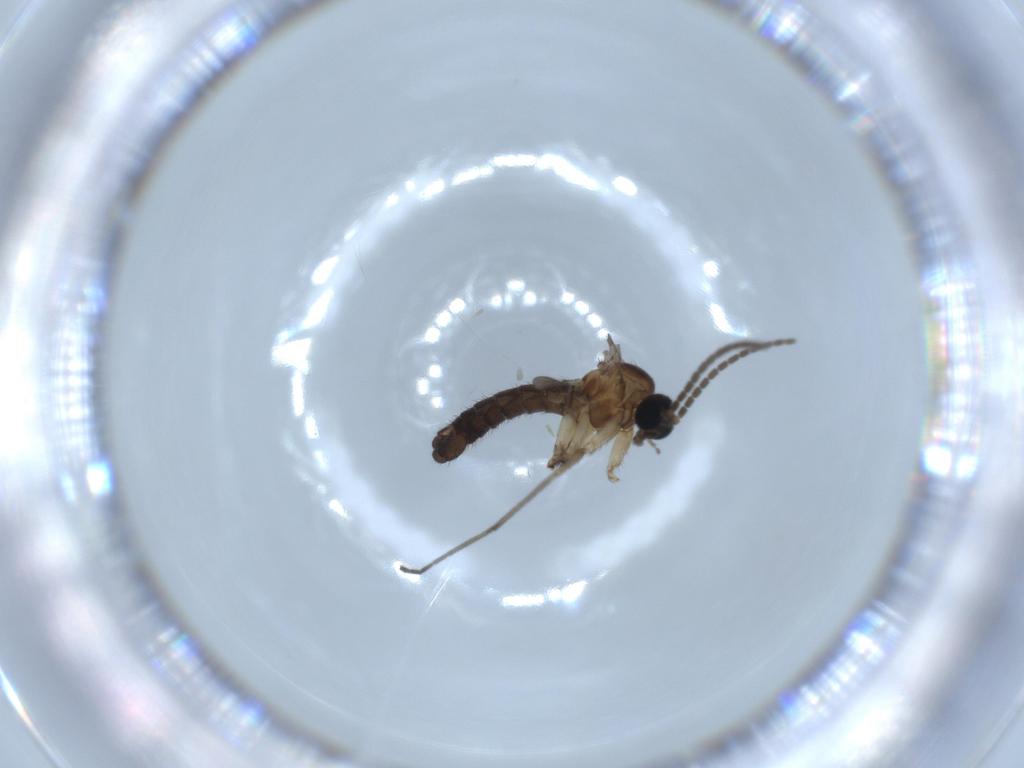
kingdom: Animalia
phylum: Arthropoda
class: Insecta
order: Diptera
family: Sciaridae
